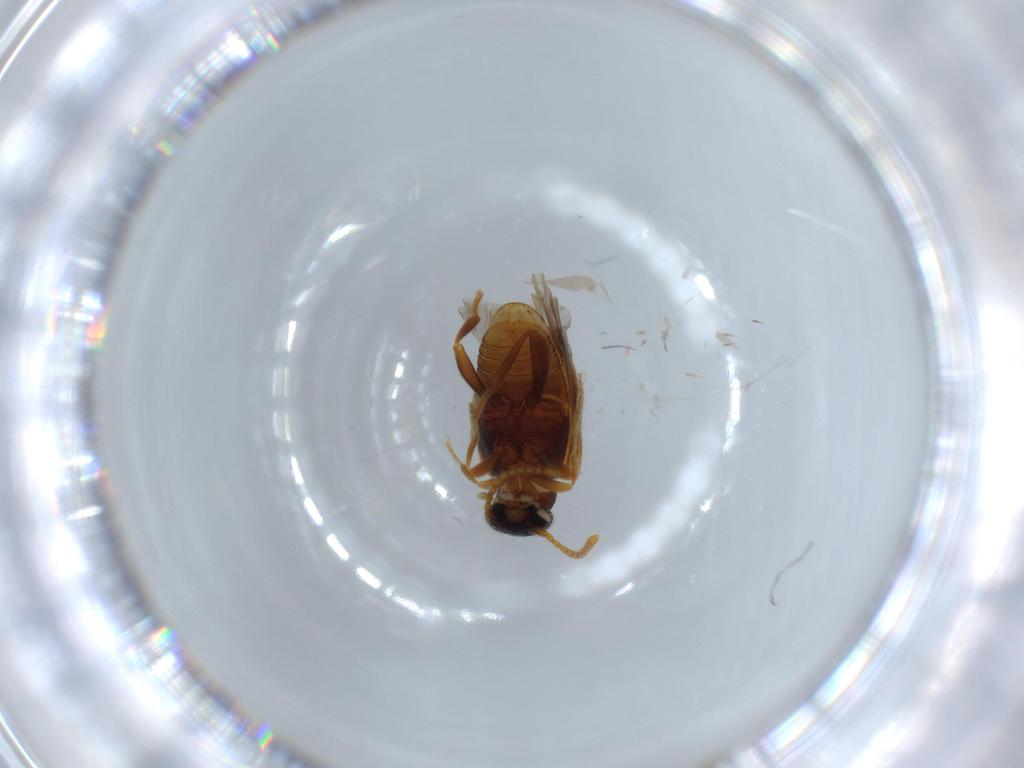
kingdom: Animalia
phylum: Arthropoda
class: Insecta
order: Coleoptera
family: Aderidae
